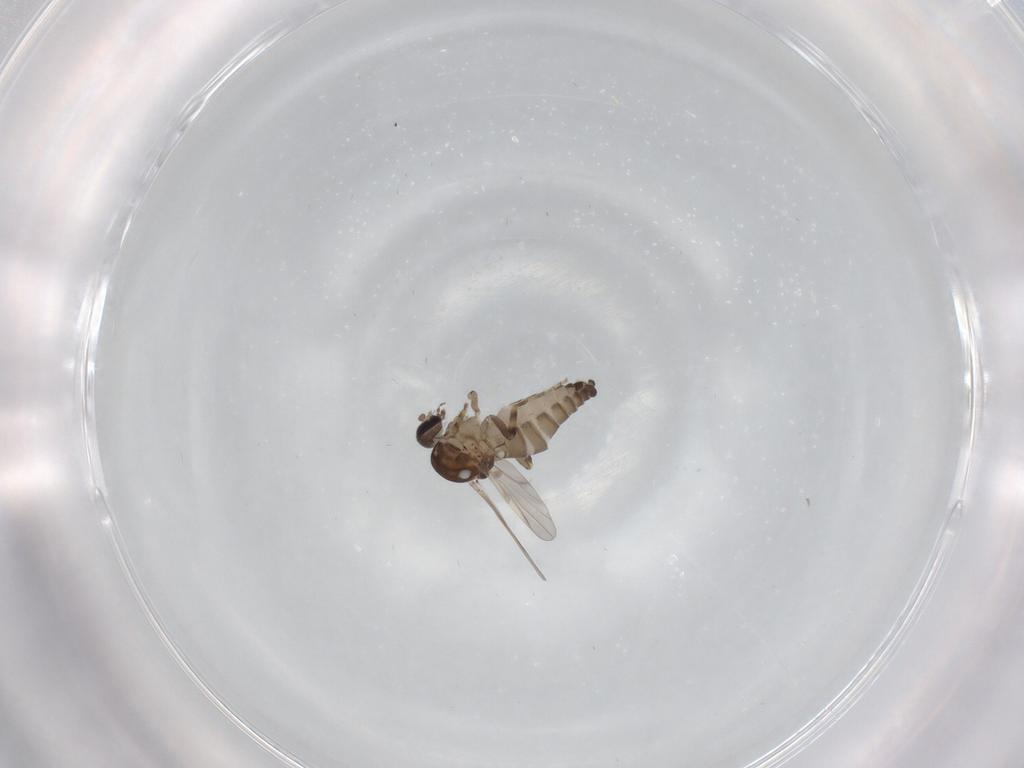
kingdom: Animalia
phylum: Arthropoda
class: Insecta
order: Diptera
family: Ceratopogonidae
